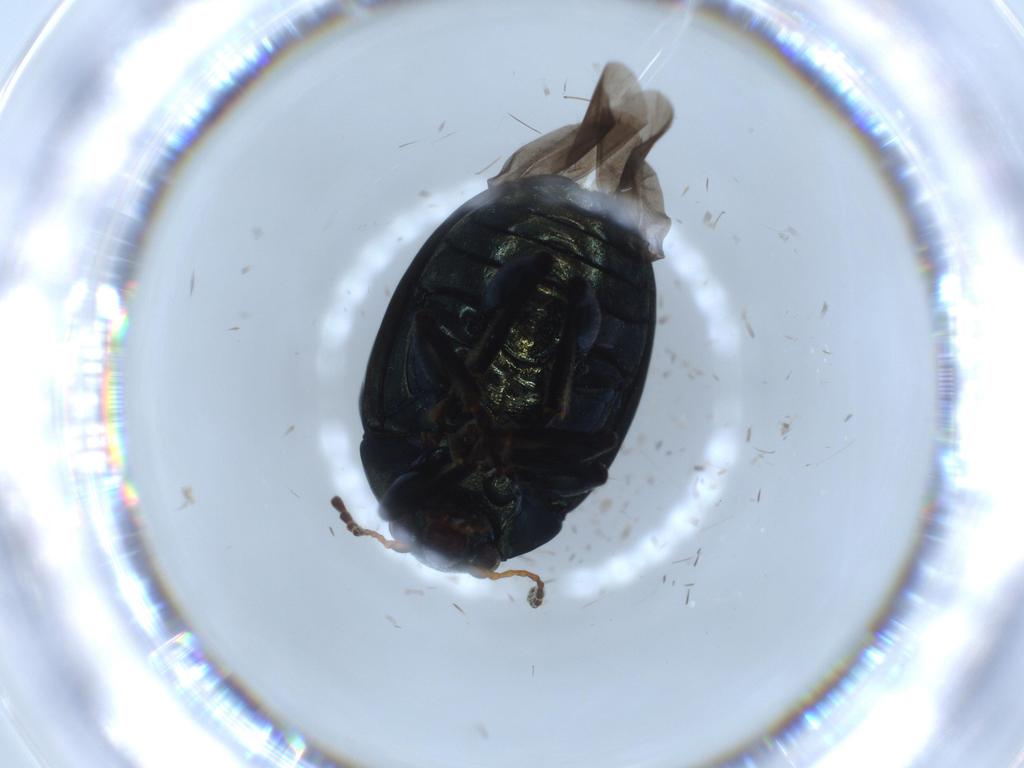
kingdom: Animalia
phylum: Arthropoda
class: Insecta
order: Coleoptera
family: Chrysomelidae
